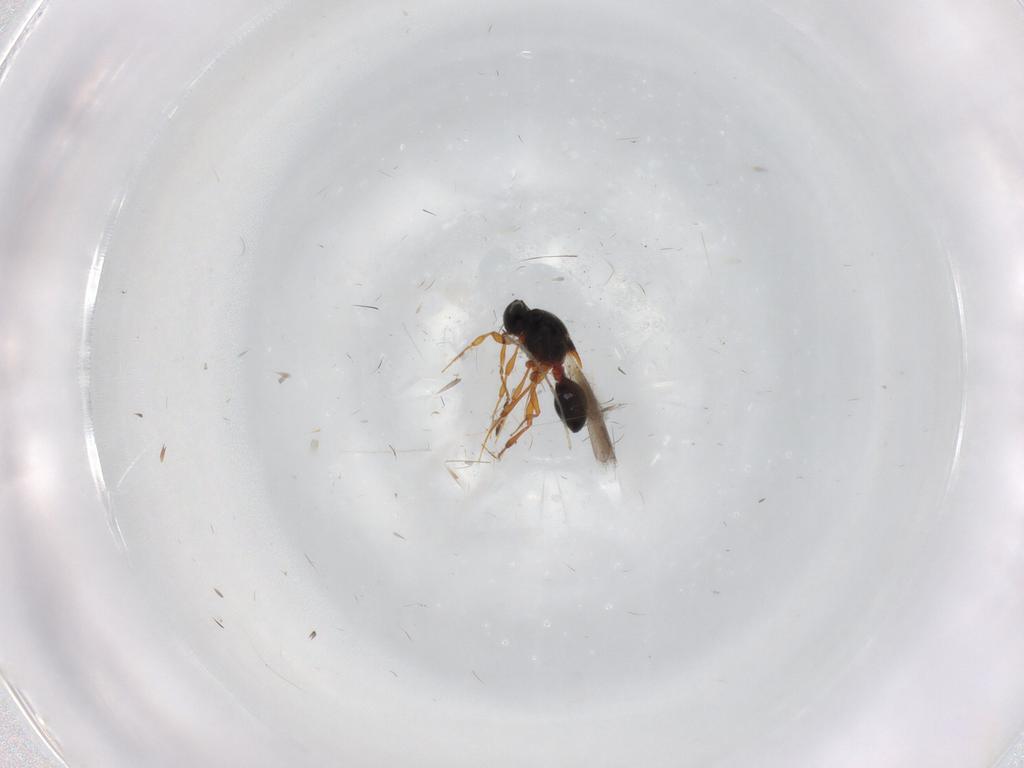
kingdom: Animalia
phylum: Arthropoda
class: Insecta
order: Hymenoptera
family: Platygastridae
